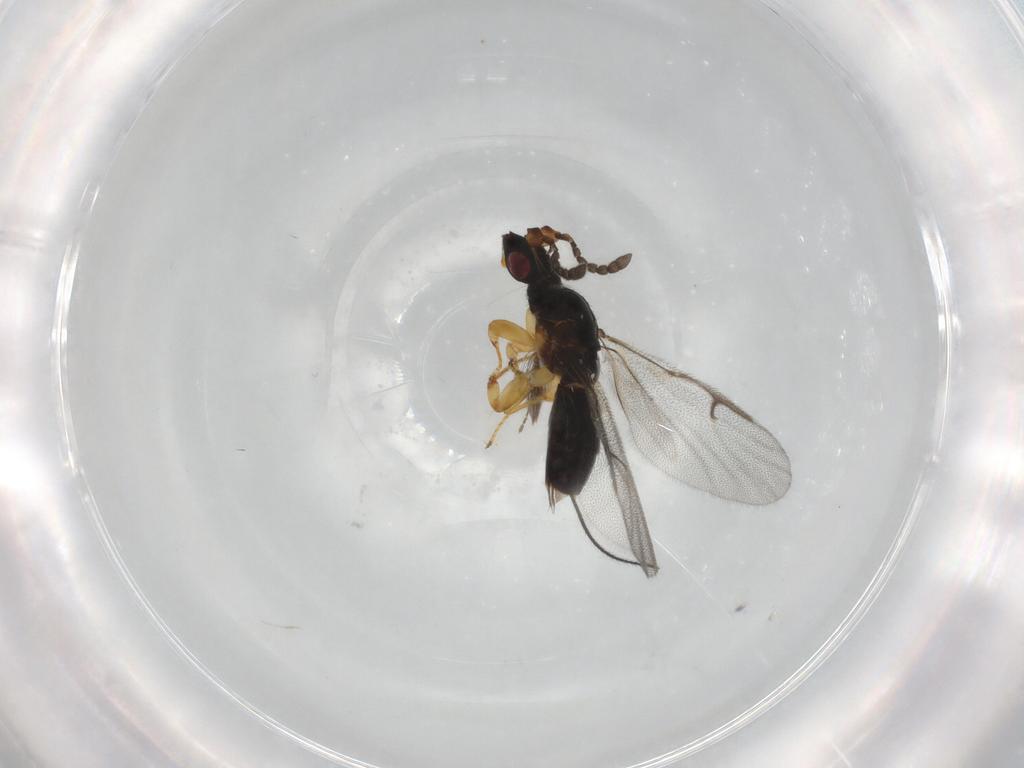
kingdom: Animalia
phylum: Arthropoda
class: Insecta
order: Hymenoptera
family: Agaonidae
